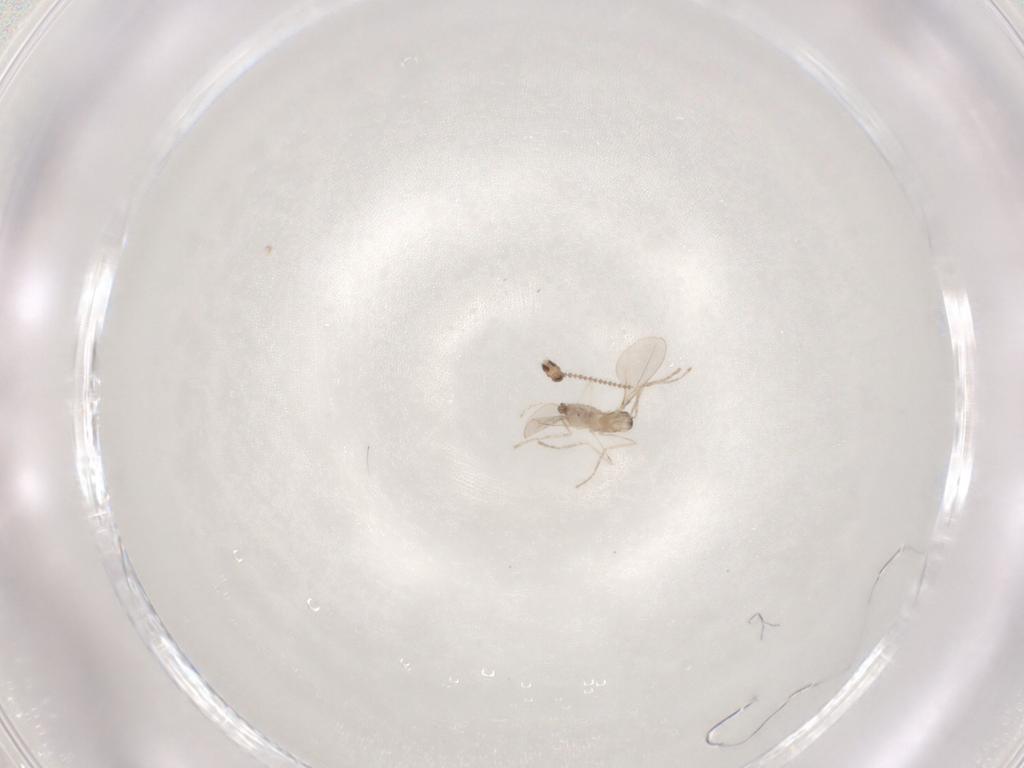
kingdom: Animalia
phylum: Arthropoda
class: Insecta
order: Diptera
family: Cecidomyiidae
